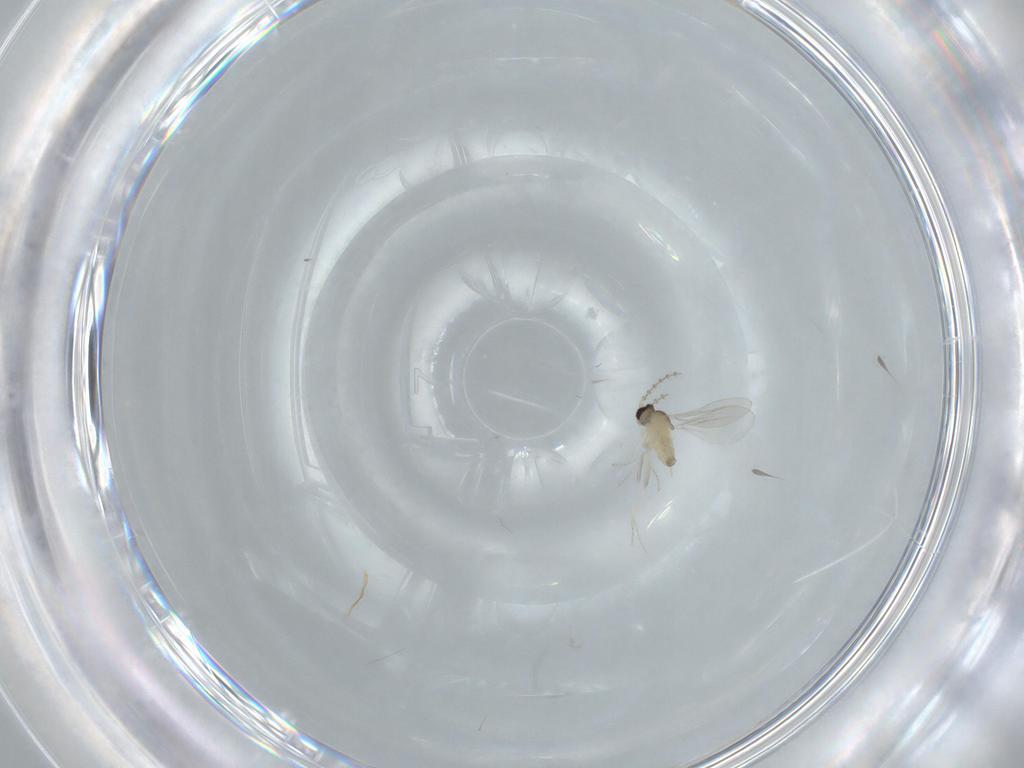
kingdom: Animalia
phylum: Arthropoda
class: Insecta
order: Diptera
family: Cecidomyiidae
